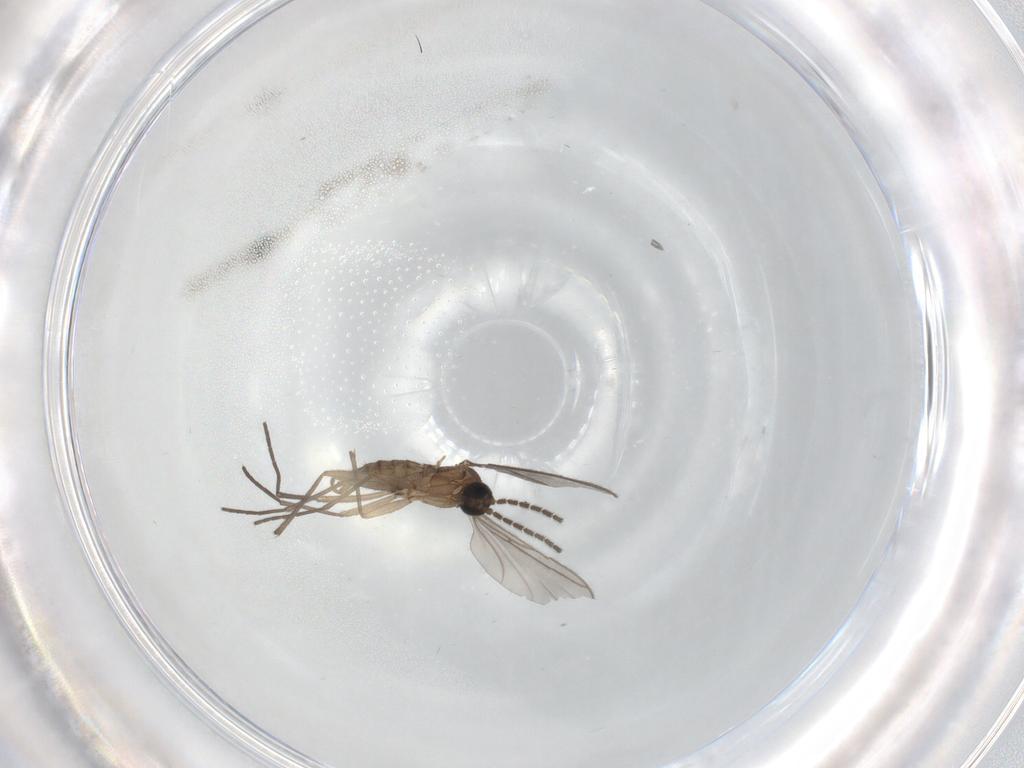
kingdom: Animalia
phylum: Arthropoda
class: Insecta
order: Diptera
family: Sciaridae
